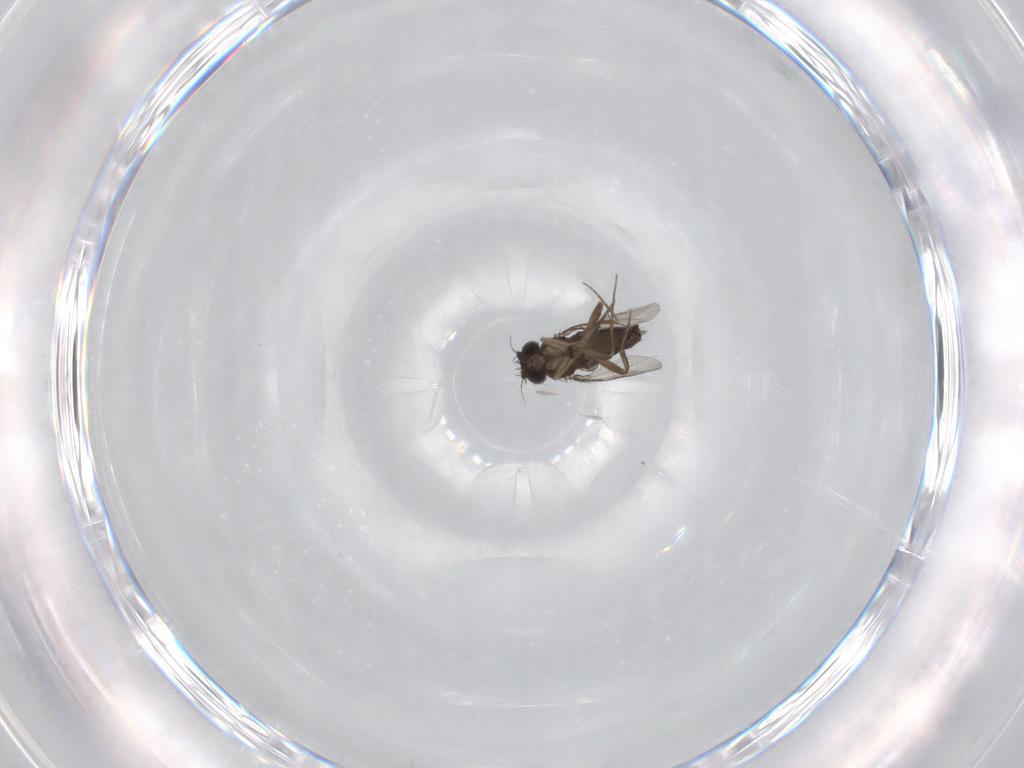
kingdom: Animalia
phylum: Arthropoda
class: Insecta
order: Diptera
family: Phoridae
